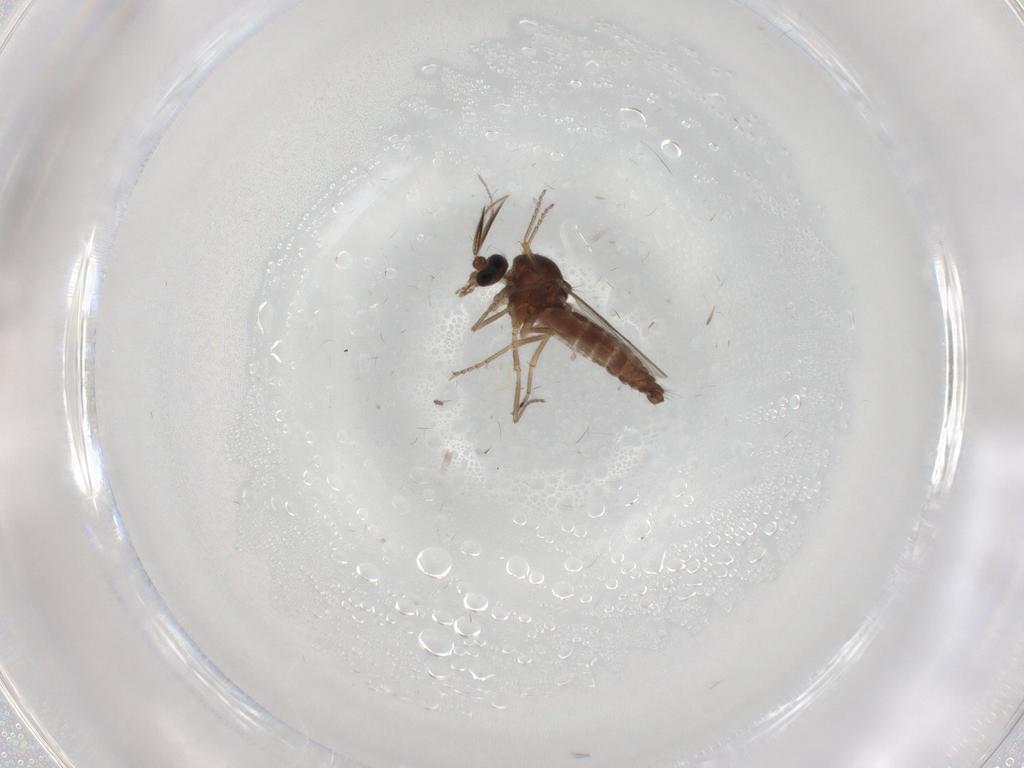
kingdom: Animalia
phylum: Arthropoda
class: Insecta
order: Diptera
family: Ceratopogonidae
